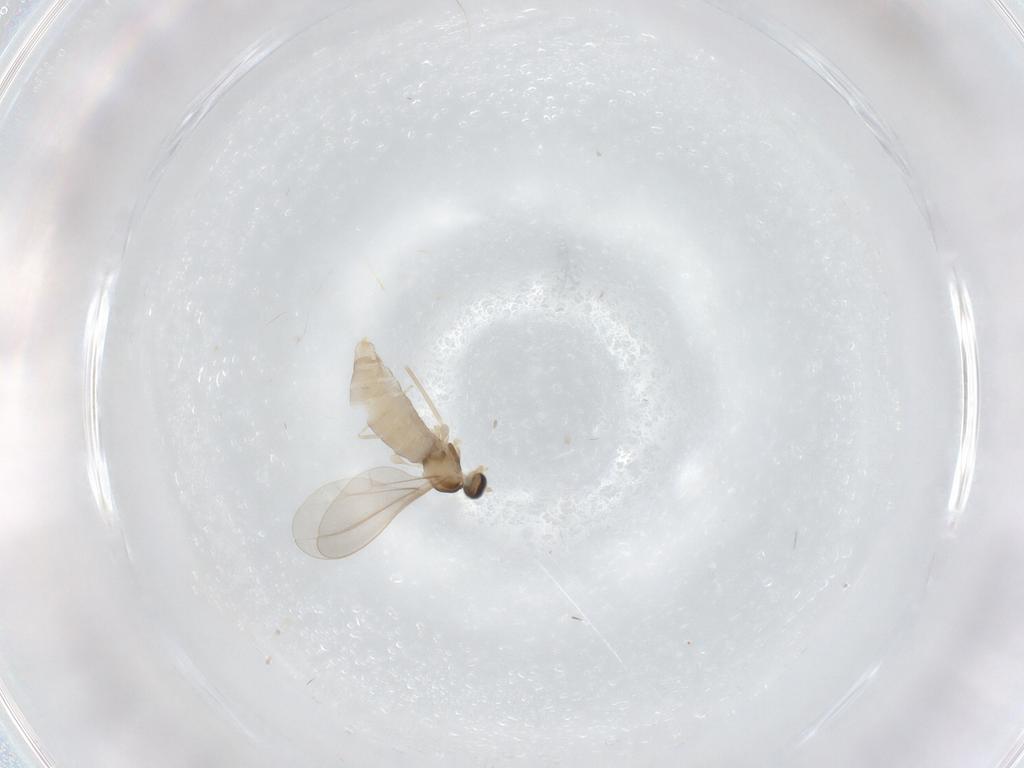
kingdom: Animalia
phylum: Arthropoda
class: Insecta
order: Diptera
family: Cecidomyiidae
